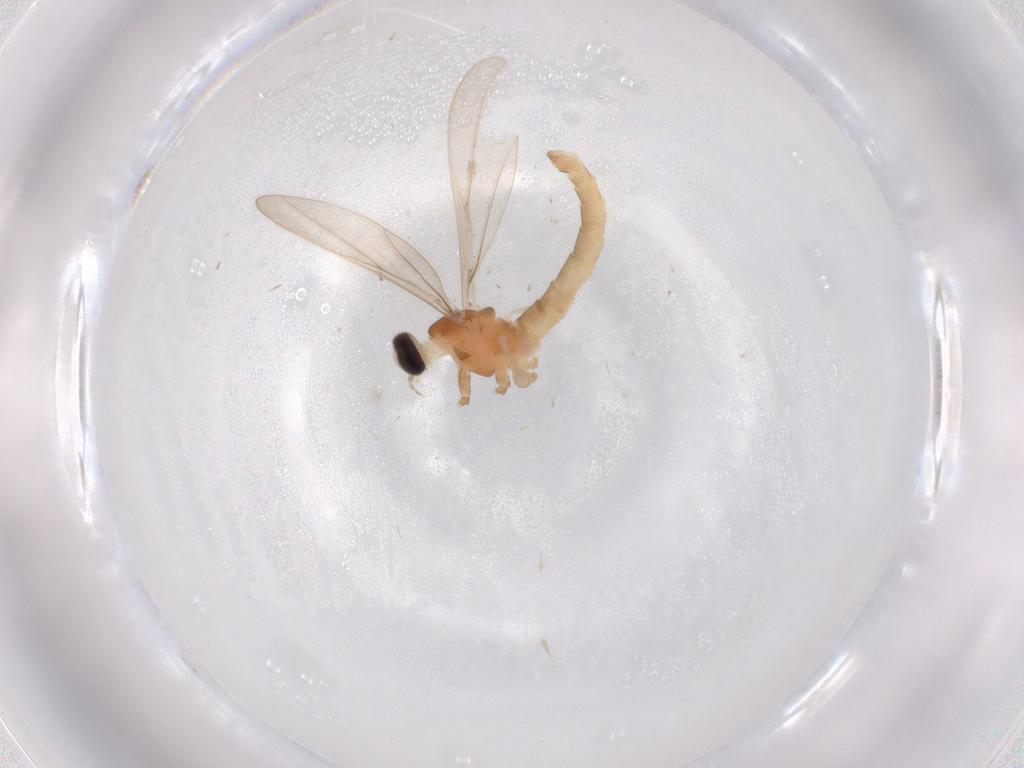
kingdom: Animalia
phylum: Arthropoda
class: Insecta
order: Diptera
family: Cecidomyiidae
